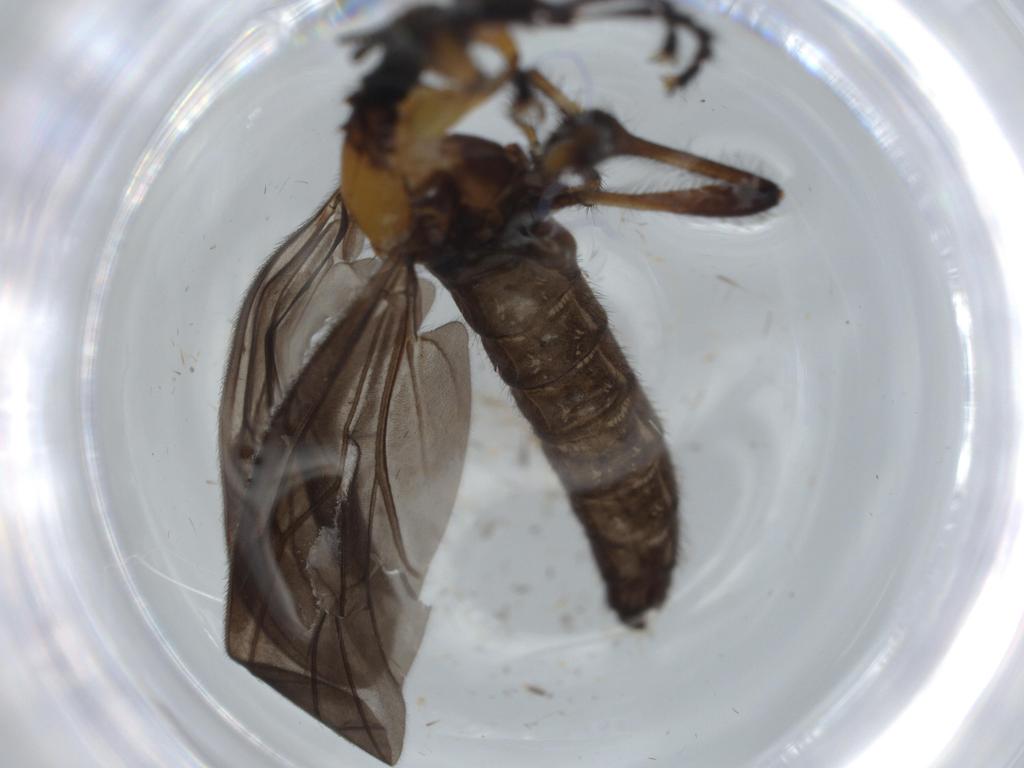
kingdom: Animalia
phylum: Arthropoda
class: Insecta
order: Diptera
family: Bibionidae
